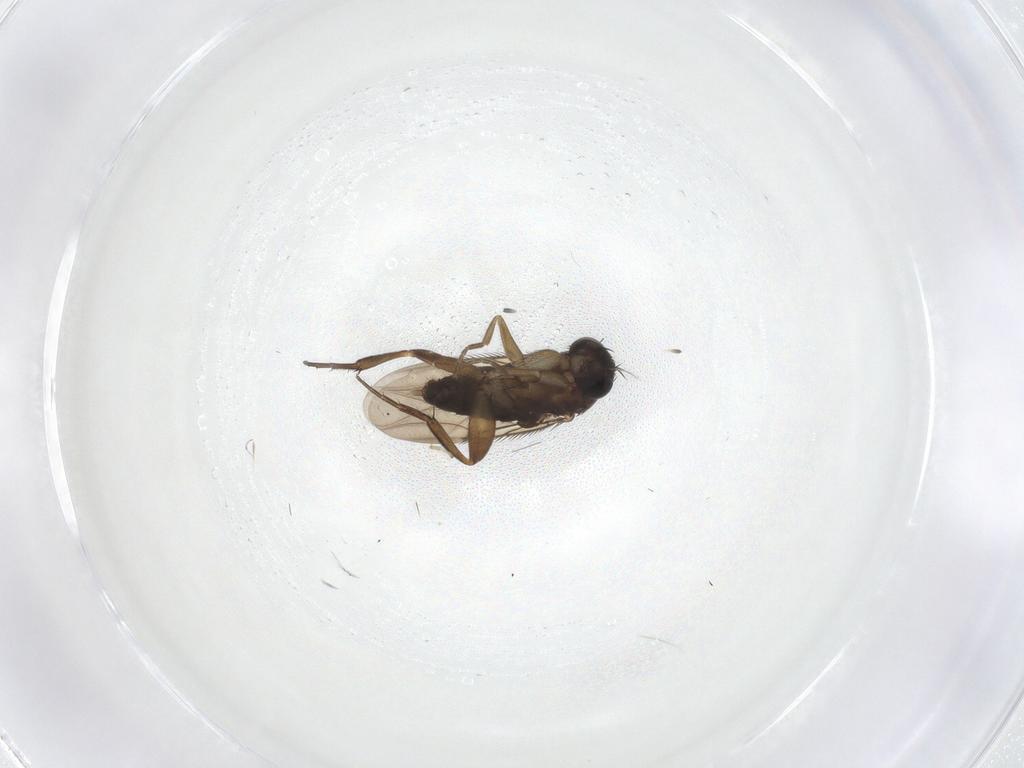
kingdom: Animalia
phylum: Arthropoda
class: Insecta
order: Diptera
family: Phoridae
